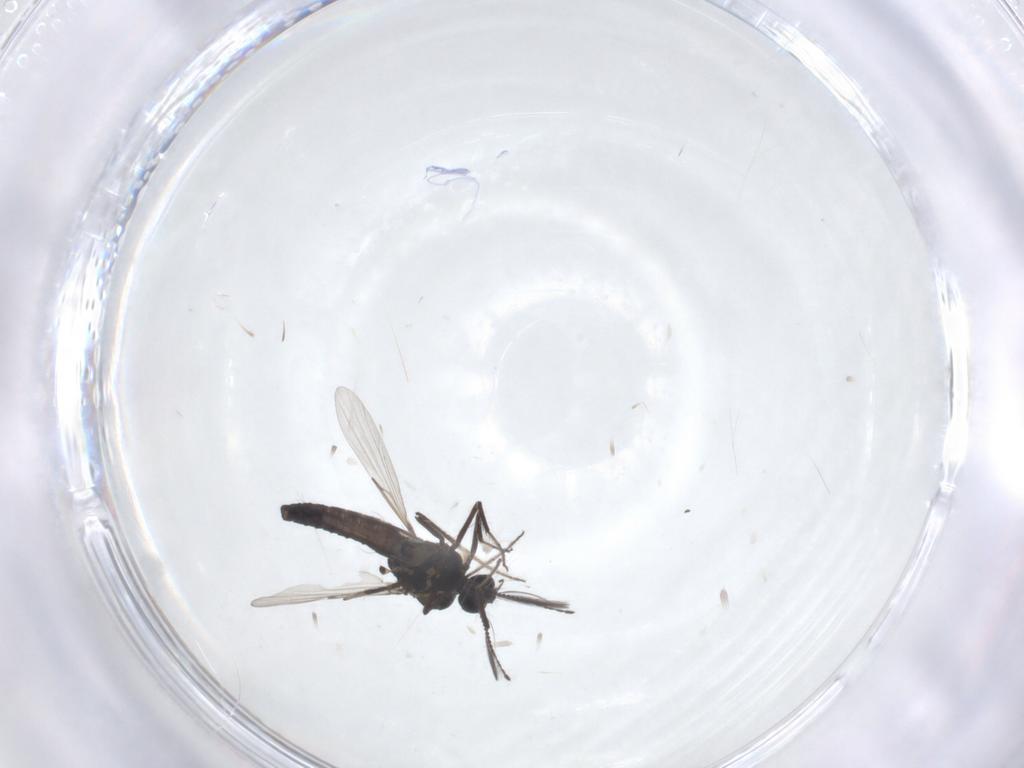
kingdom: Animalia
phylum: Arthropoda
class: Insecta
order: Diptera
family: Ceratopogonidae
